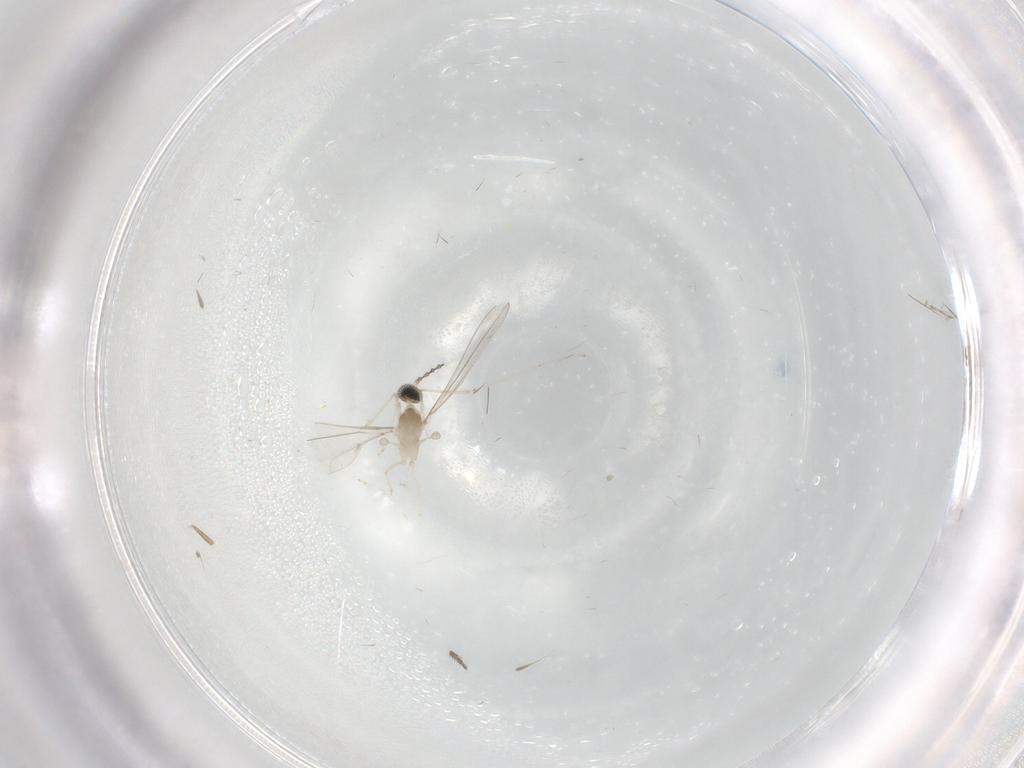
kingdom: Animalia
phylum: Arthropoda
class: Insecta
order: Diptera
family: Cecidomyiidae
